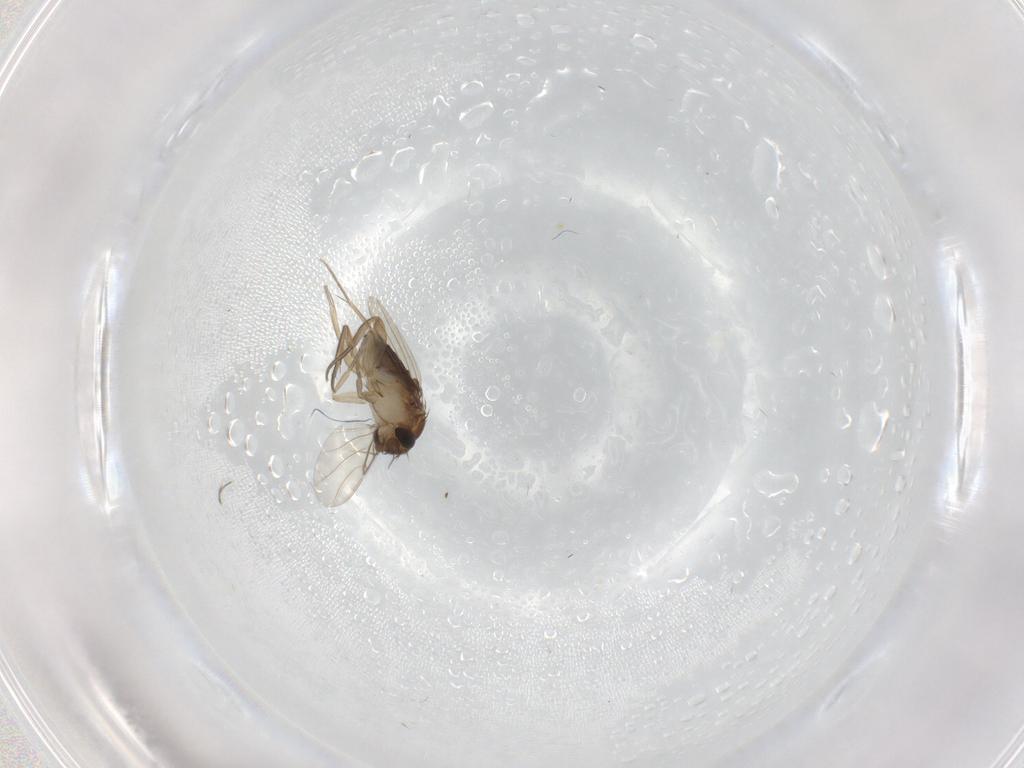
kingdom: Animalia
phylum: Arthropoda
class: Insecta
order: Diptera
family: Phoridae
